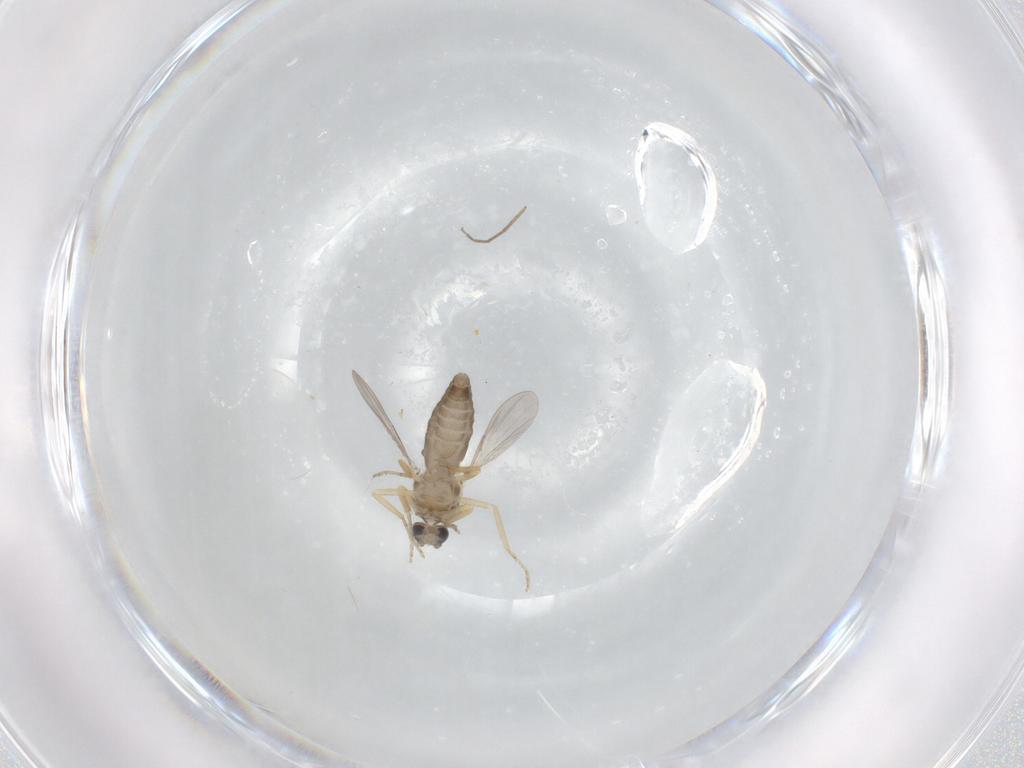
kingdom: Animalia
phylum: Arthropoda
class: Insecta
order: Diptera
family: Ceratopogonidae
